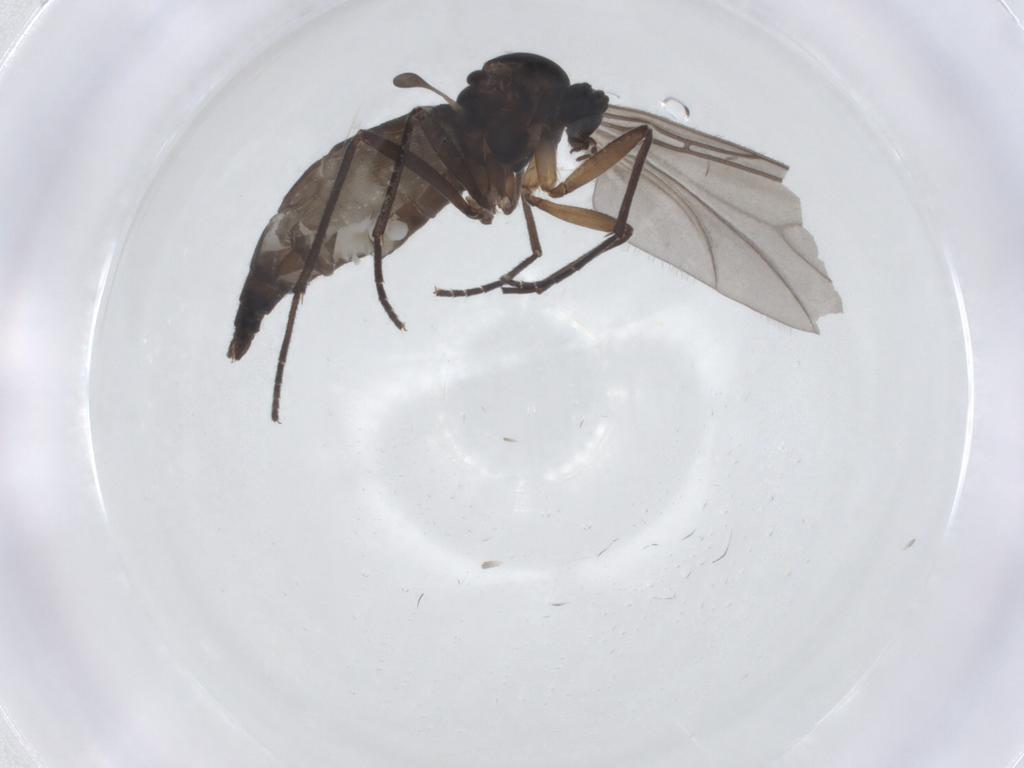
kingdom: Animalia
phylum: Arthropoda
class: Insecta
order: Diptera
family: Sciaridae
